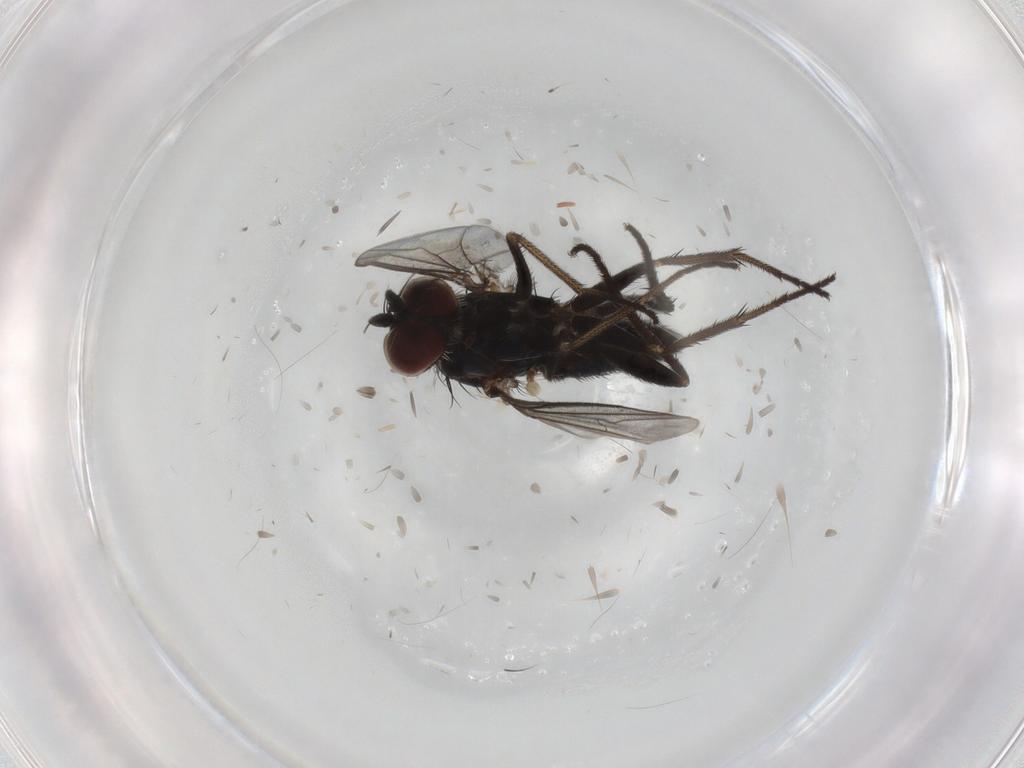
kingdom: Animalia
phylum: Arthropoda
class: Insecta
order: Diptera
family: Dolichopodidae
